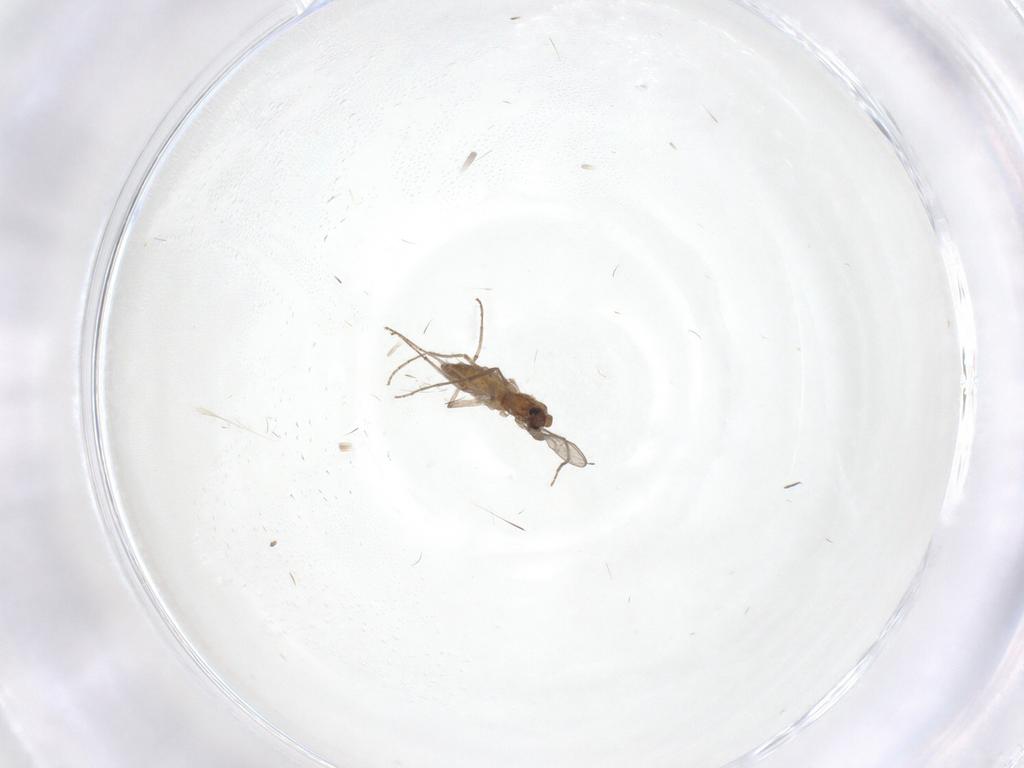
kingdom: Animalia
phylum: Arthropoda
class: Insecta
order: Diptera
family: Chironomidae
